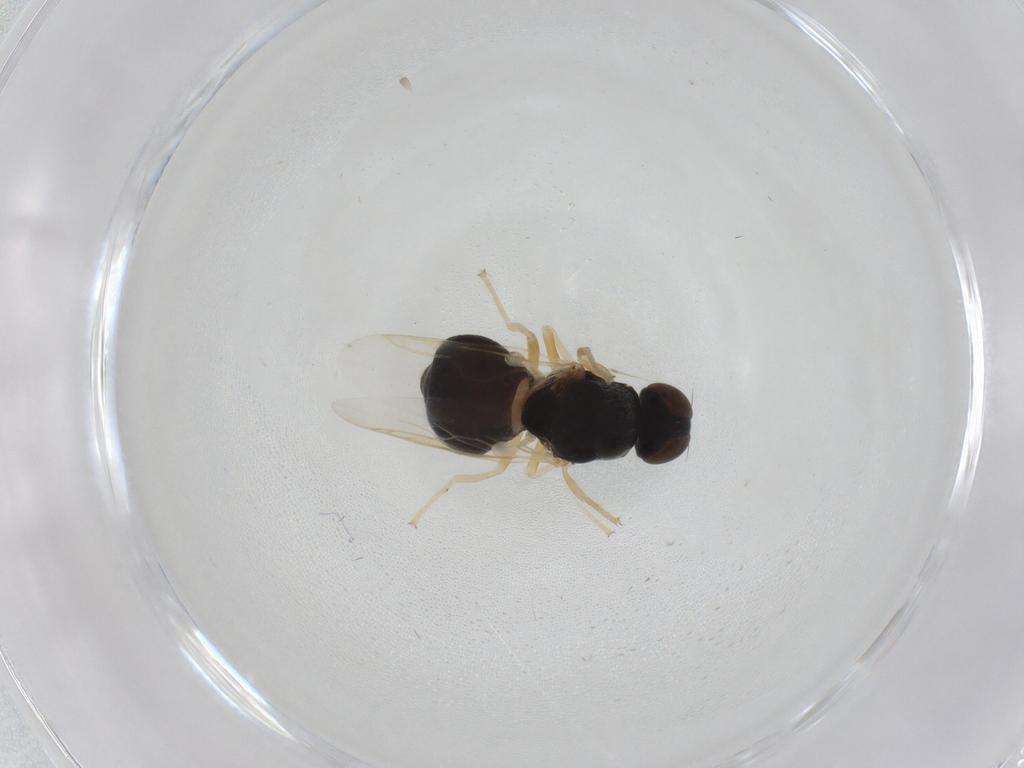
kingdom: Animalia
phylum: Arthropoda
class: Insecta
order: Diptera
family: Stratiomyidae
